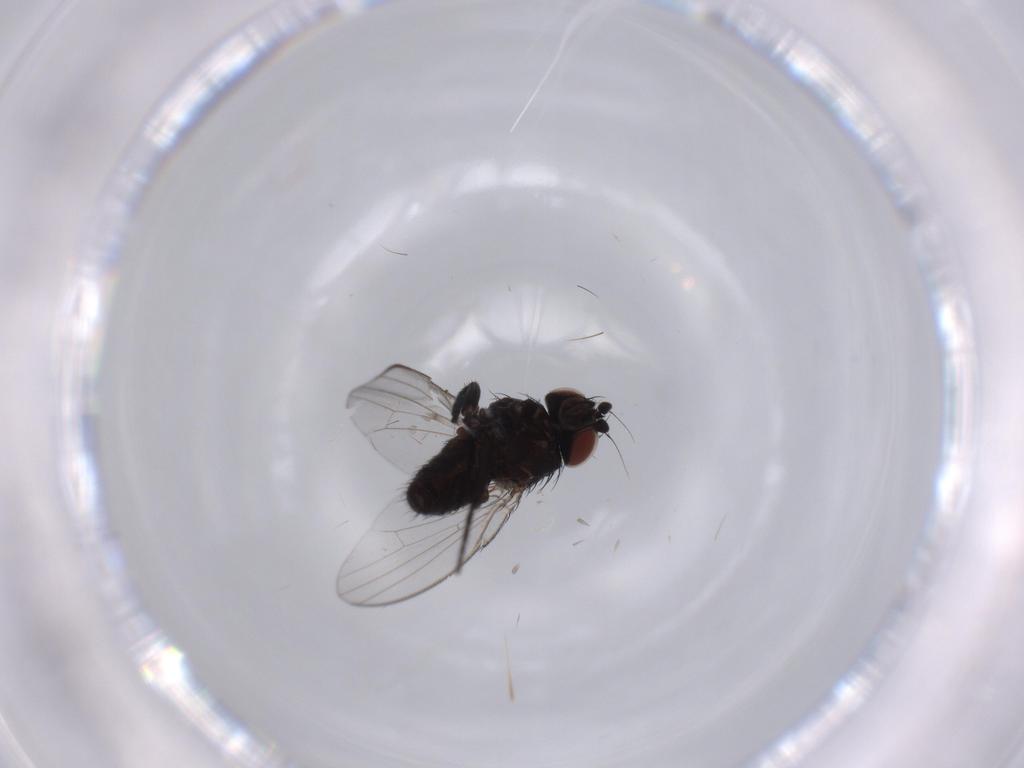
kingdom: Animalia
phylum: Arthropoda
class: Insecta
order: Diptera
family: Milichiidae
